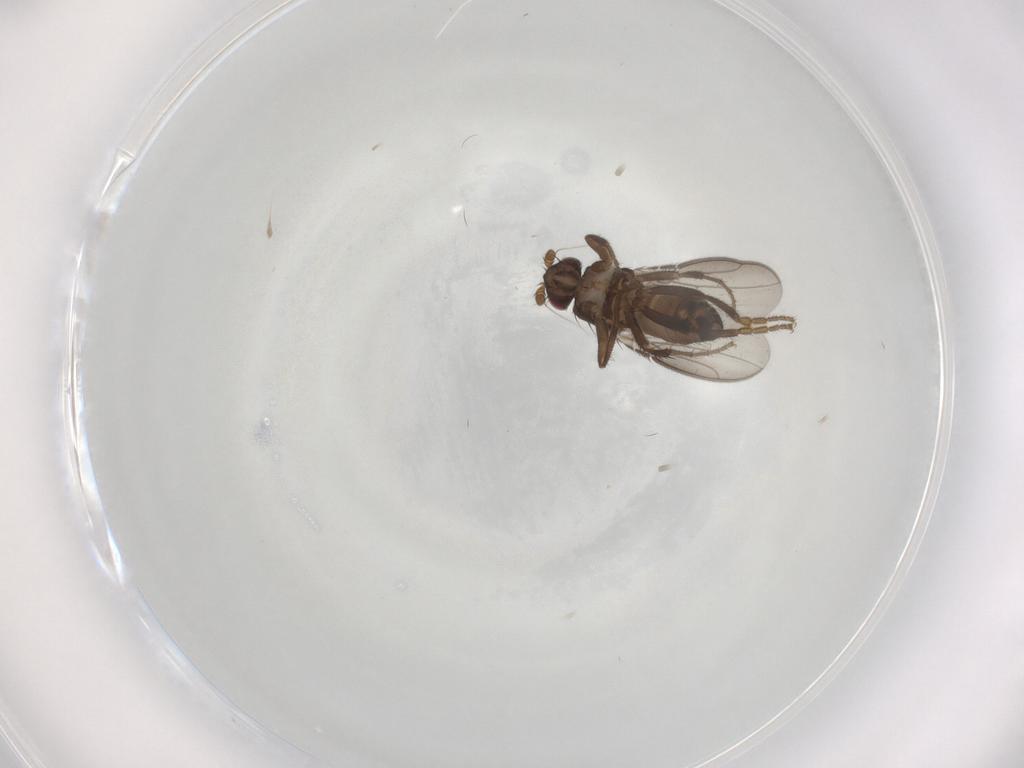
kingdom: Animalia
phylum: Arthropoda
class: Insecta
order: Diptera
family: Sphaeroceridae
